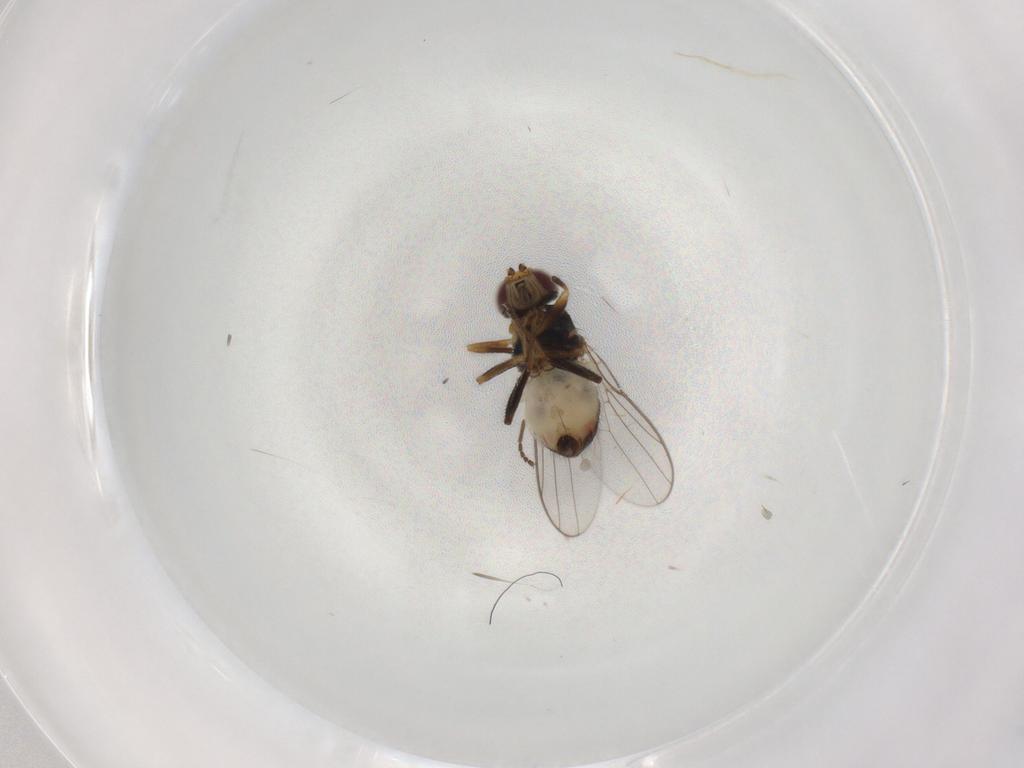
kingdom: Animalia
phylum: Arthropoda
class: Insecta
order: Diptera
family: Chloropidae
